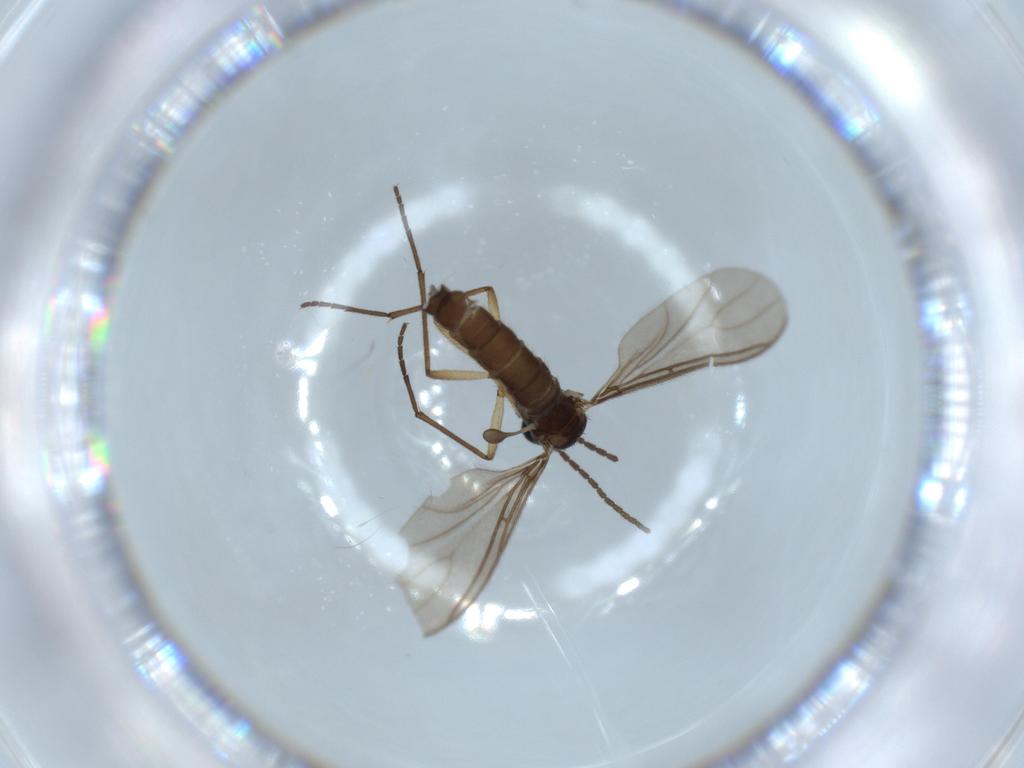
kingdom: Animalia
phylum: Arthropoda
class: Insecta
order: Diptera
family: Sciaridae
